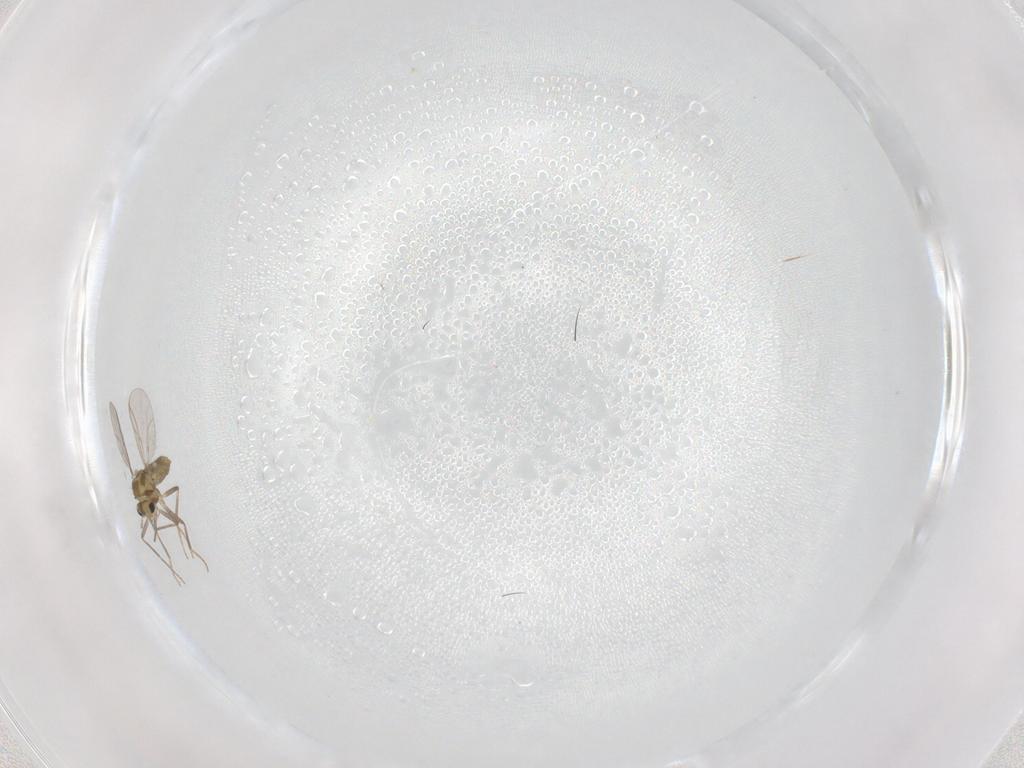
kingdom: Animalia
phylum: Arthropoda
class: Insecta
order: Diptera
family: Chironomidae
